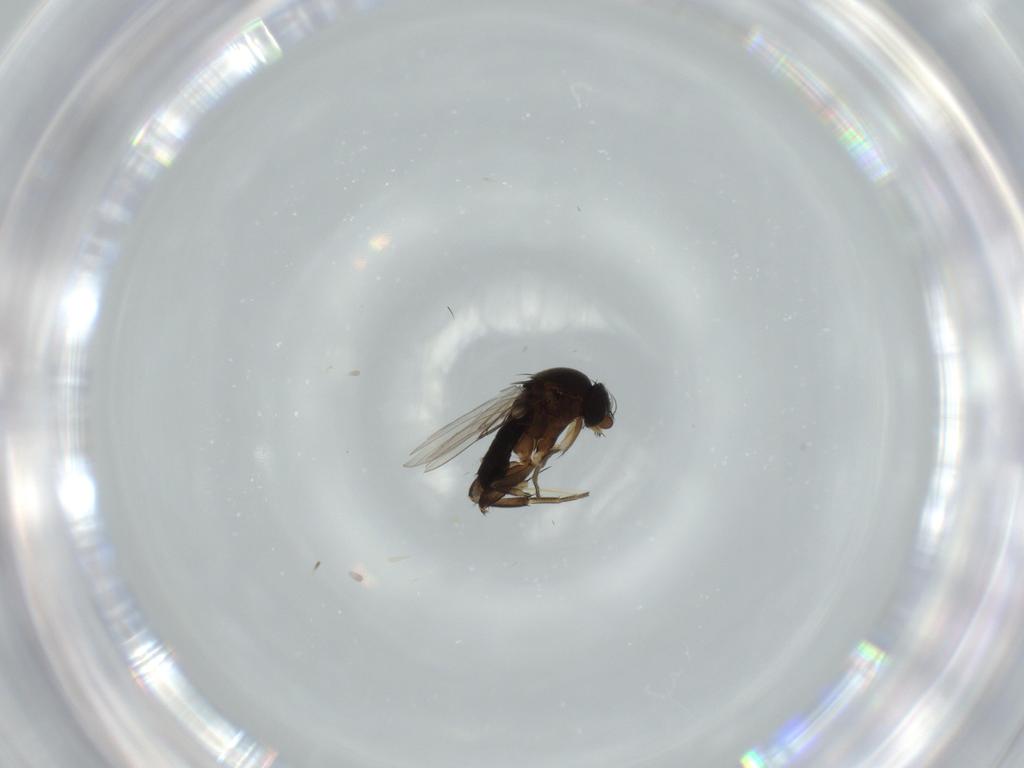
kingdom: Animalia
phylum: Arthropoda
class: Insecta
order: Diptera
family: Phoridae
